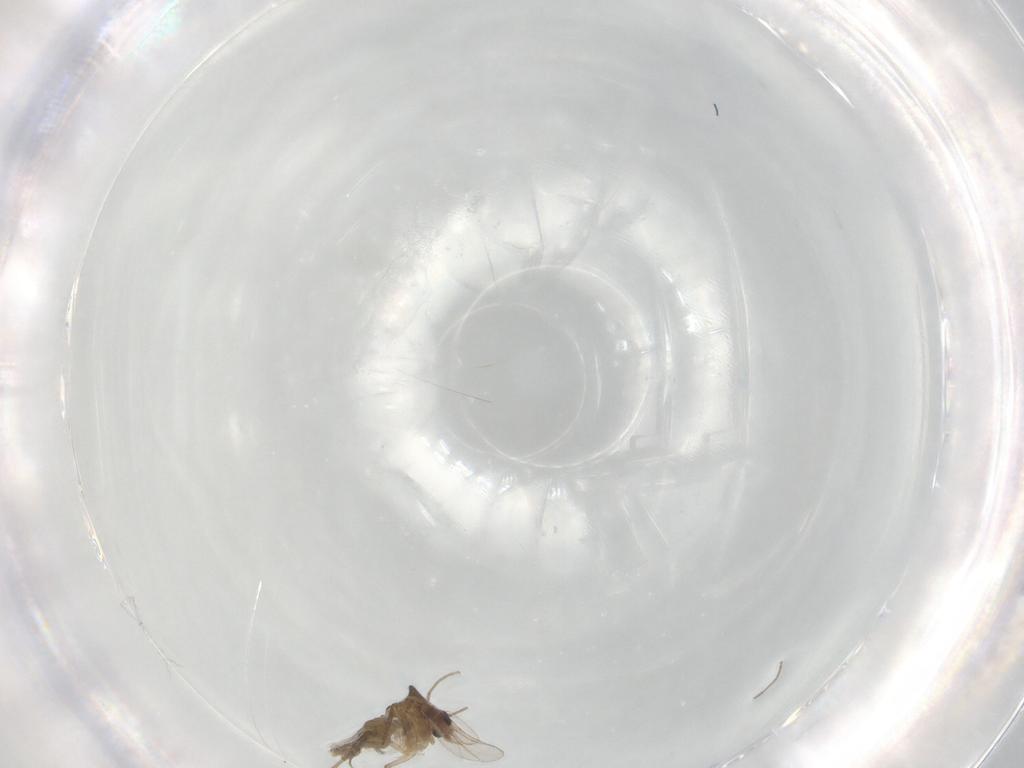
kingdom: Animalia
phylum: Arthropoda
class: Insecta
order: Diptera
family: Chironomidae
